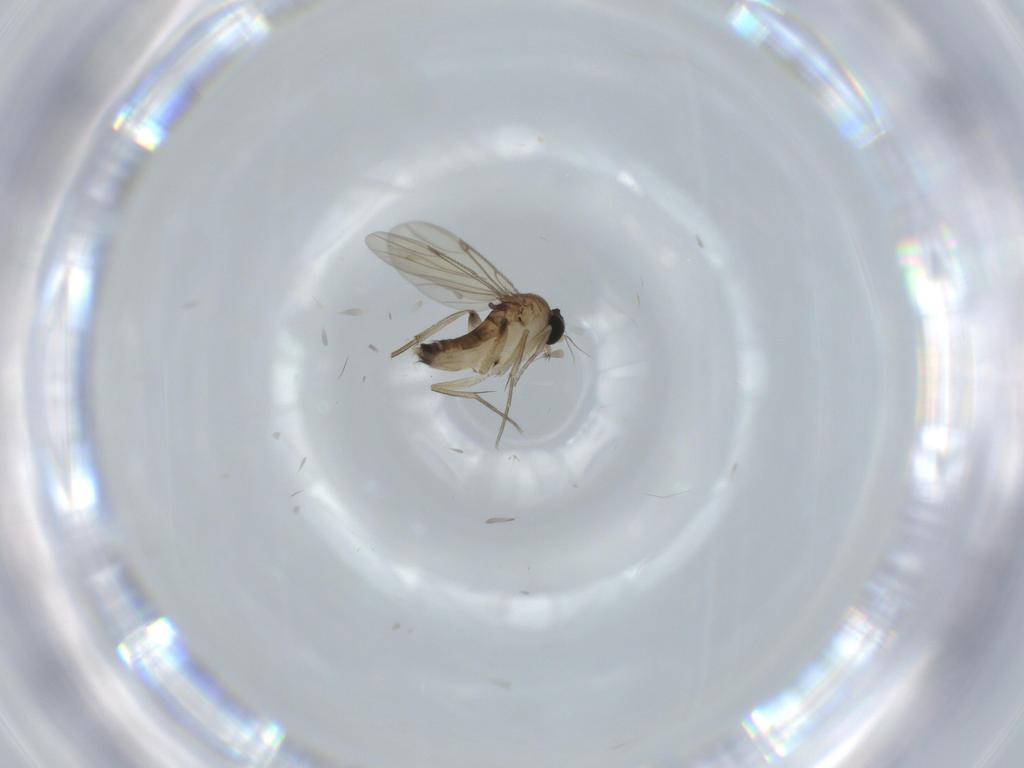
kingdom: Animalia
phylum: Arthropoda
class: Insecta
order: Diptera
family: Phoridae
